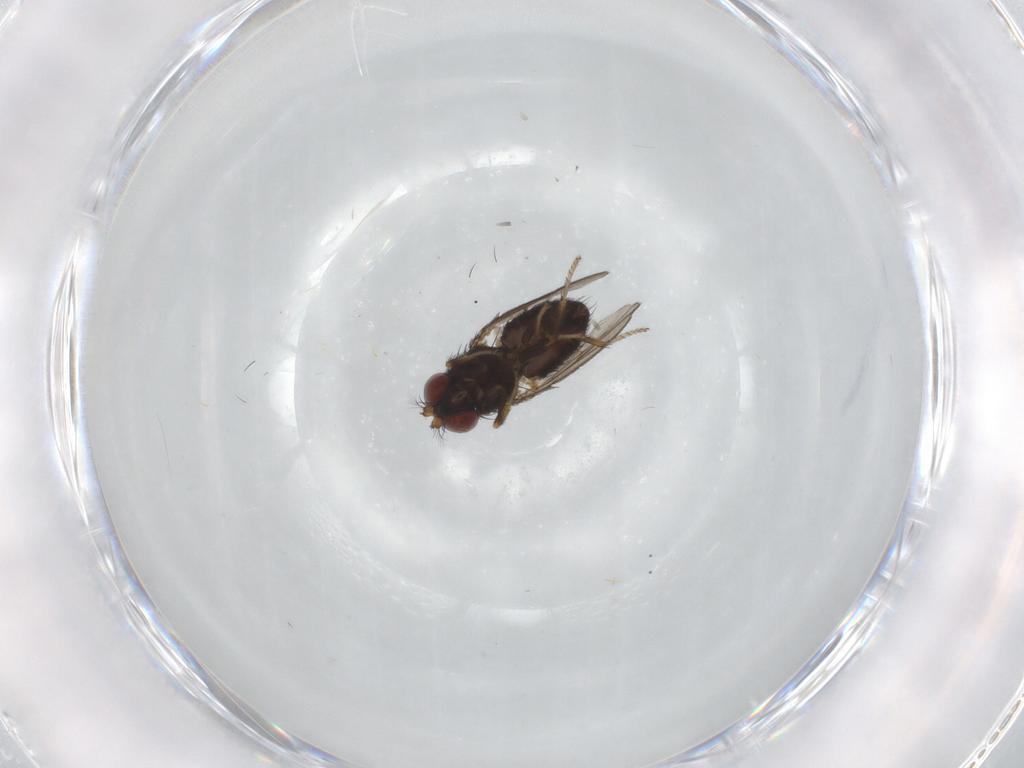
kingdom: Animalia
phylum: Arthropoda
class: Insecta
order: Diptera
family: Ephydridae
